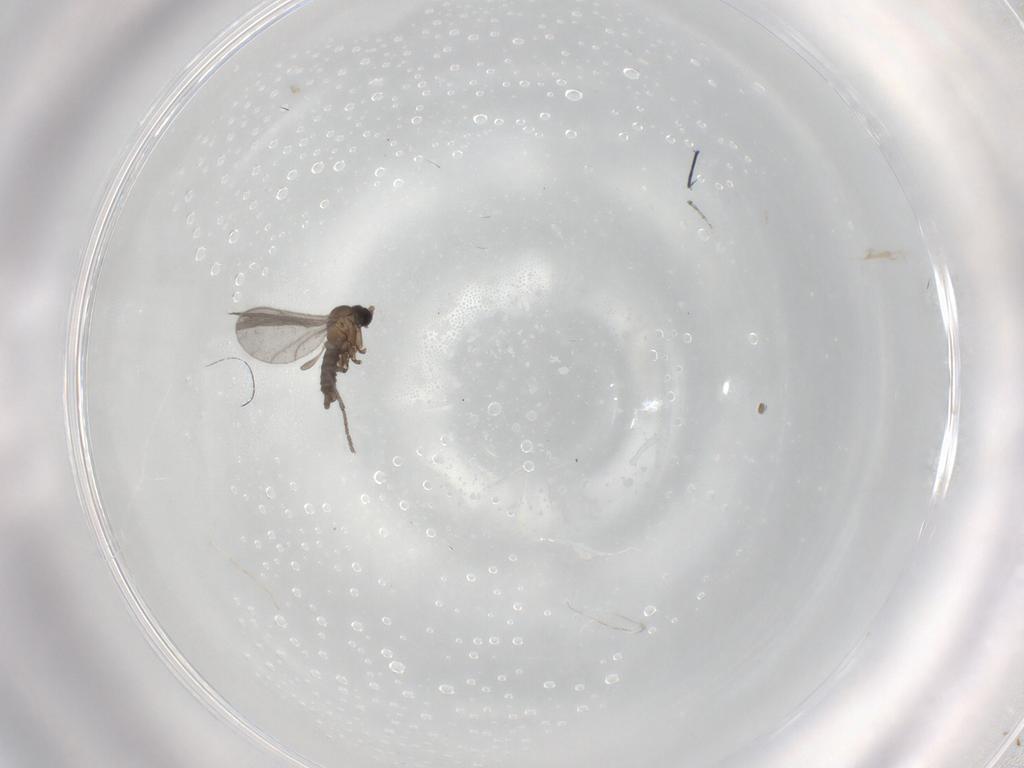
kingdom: Animalia
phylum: Arthropoda
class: Insecta
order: Diptera
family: Sciaridae
